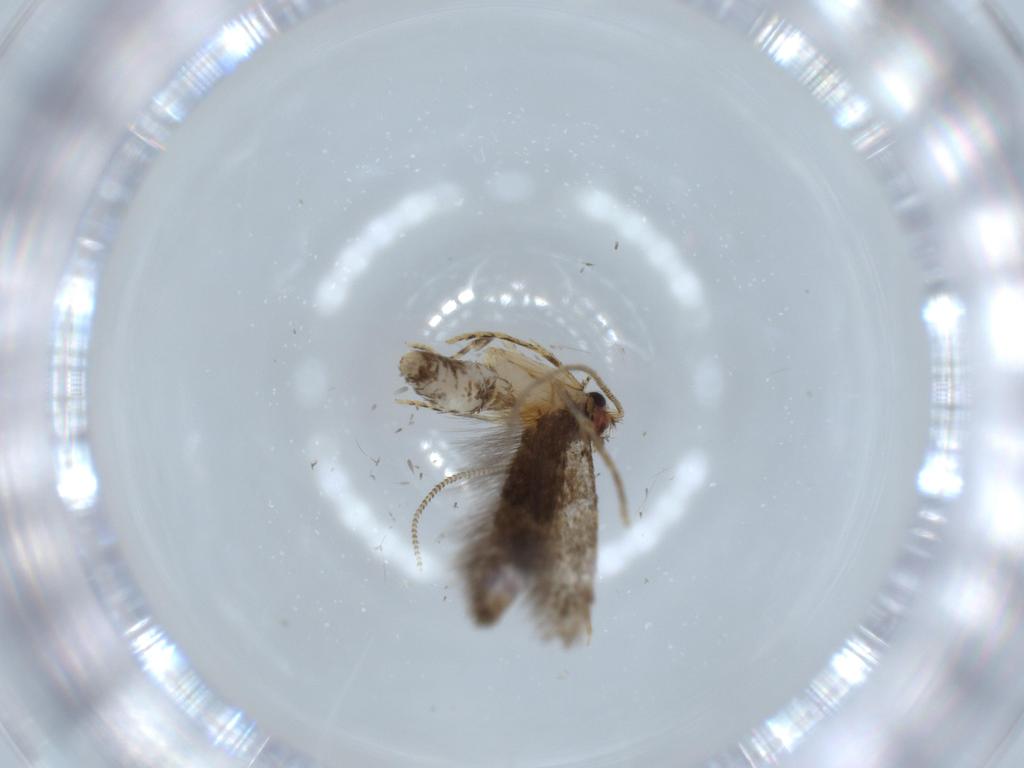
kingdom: Animalia
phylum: Arthropoda
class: Insecta
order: Lepidoptera
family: Tineidae
